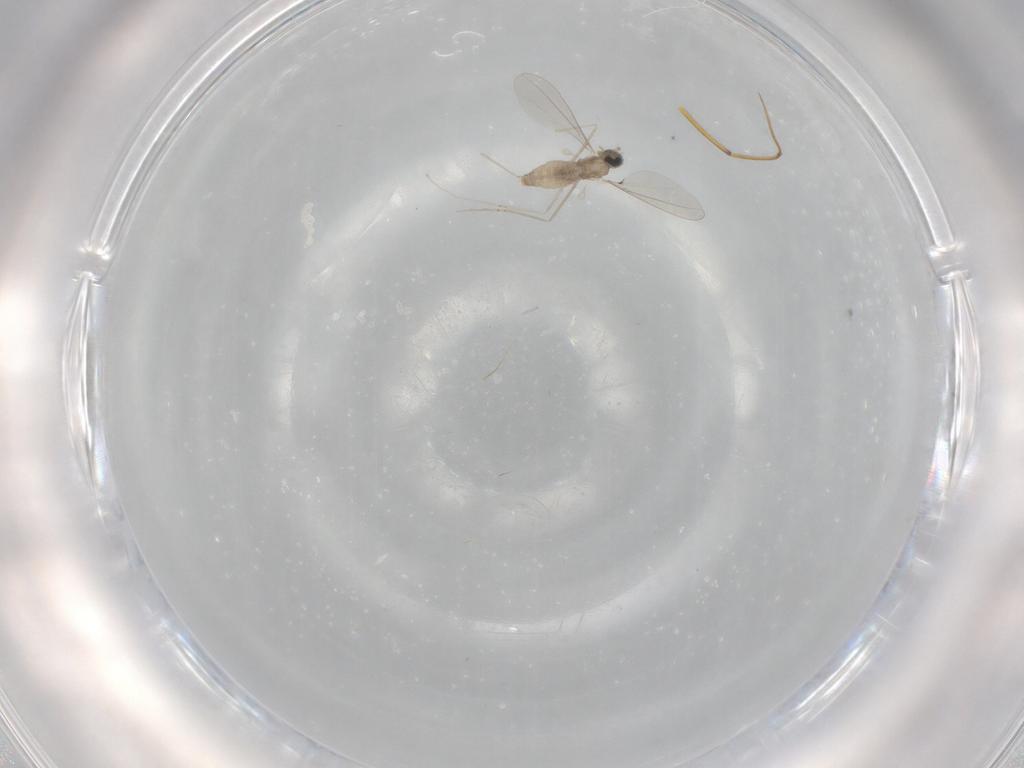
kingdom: Animalia
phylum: Arthropoda
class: Insecta
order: Diptera
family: Cecidomyiidae
